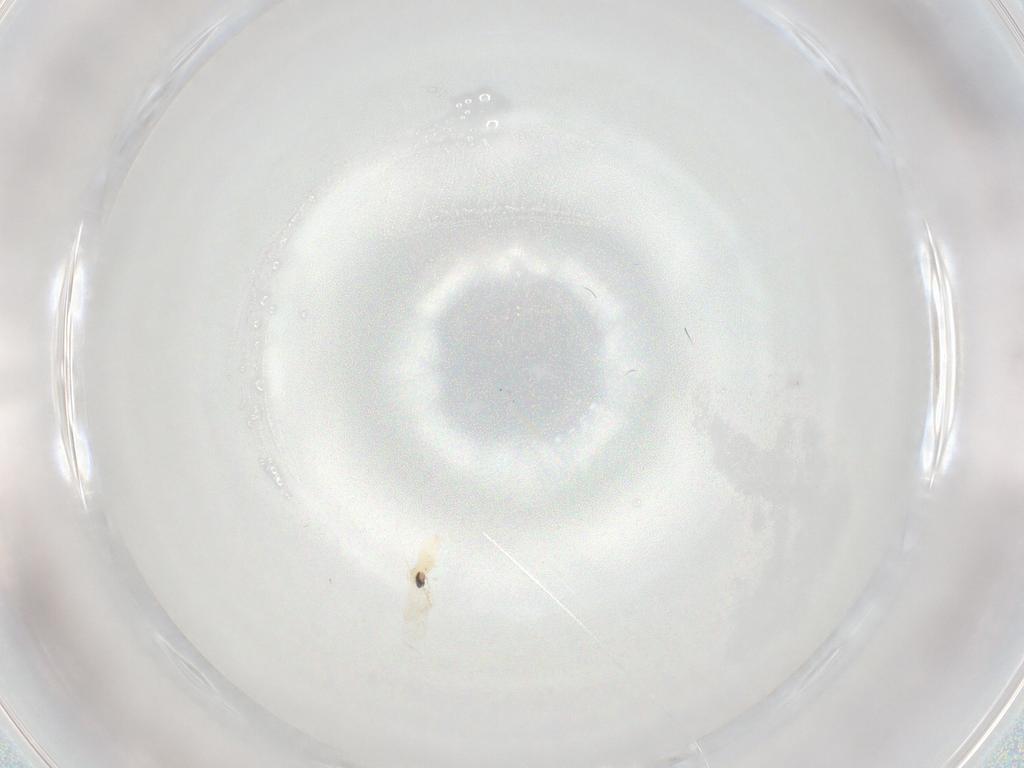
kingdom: Animalia
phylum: Arthropoda
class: Insecta
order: Diptera
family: Cecidomyiidae
